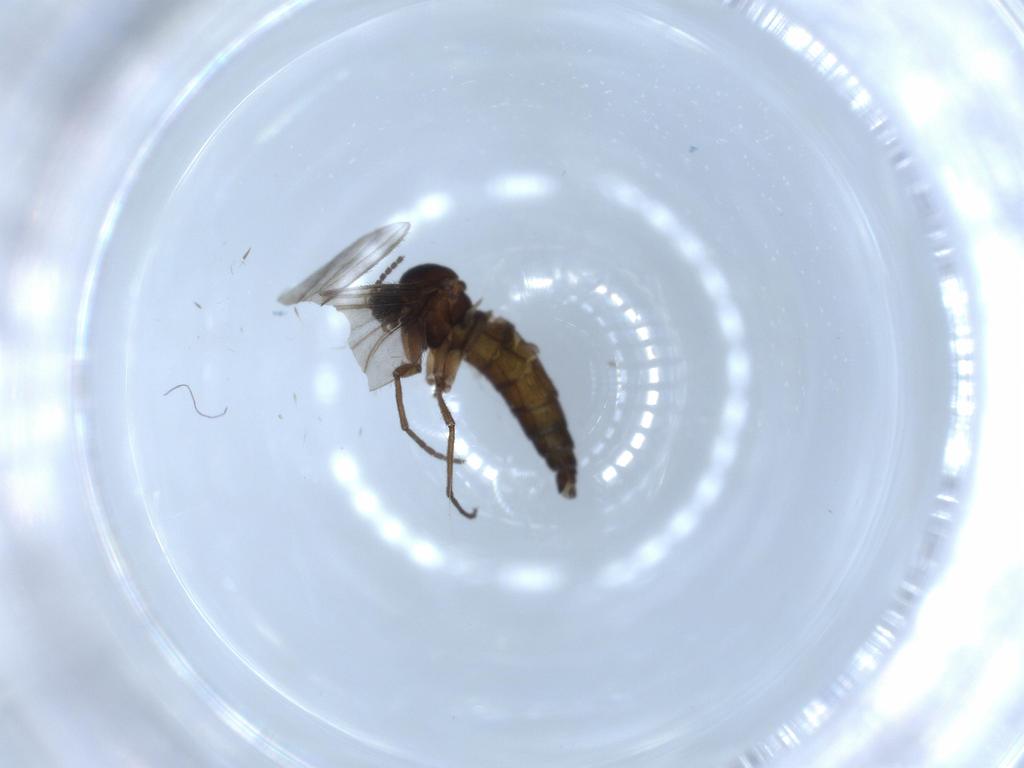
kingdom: Animalia
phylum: Arthropoda
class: Insecta
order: Diptera
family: Sciaridae
